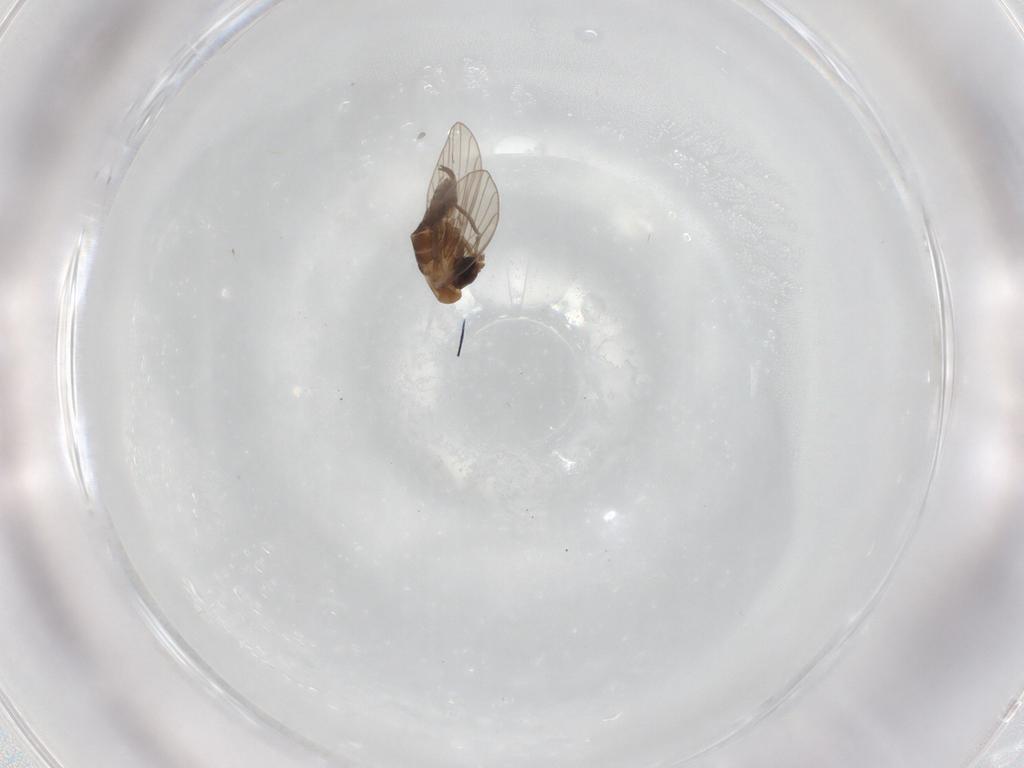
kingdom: Animalia
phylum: Arthropoda
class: Insecta
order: Diptera
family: Psychodidae
